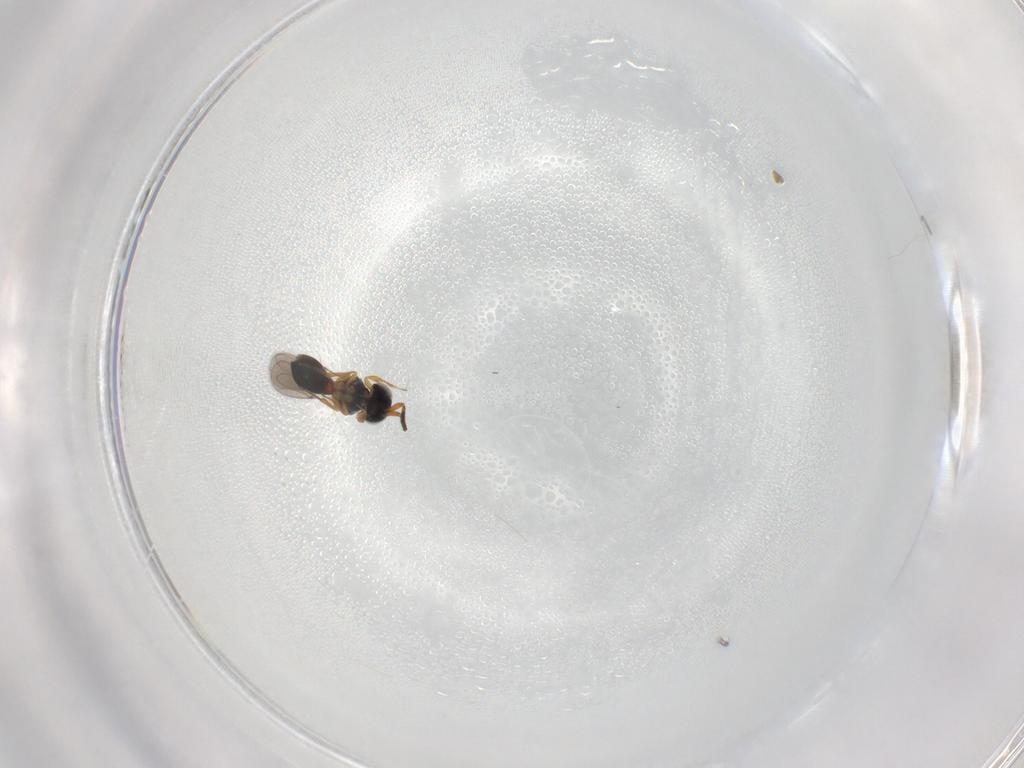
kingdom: Animalia
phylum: Arthropoda
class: Insecta
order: Hymenoptera
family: Scelionidae
